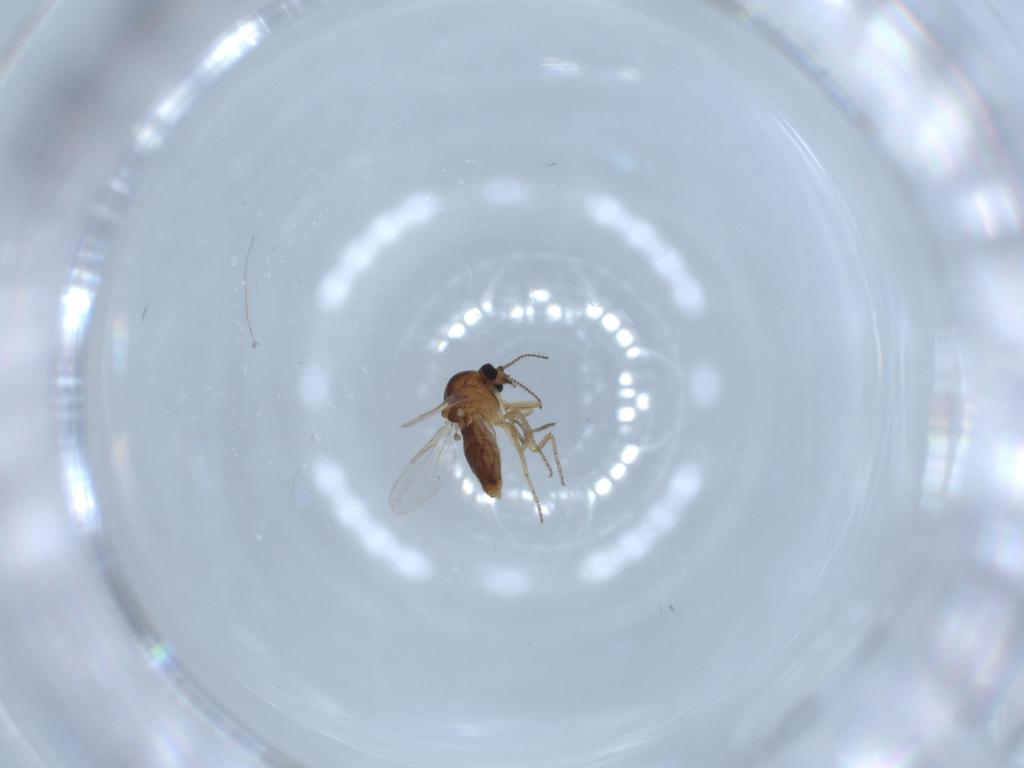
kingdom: Animalia
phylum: Arthropoda
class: Insecta
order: Diptera
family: Ceratopogonidae
